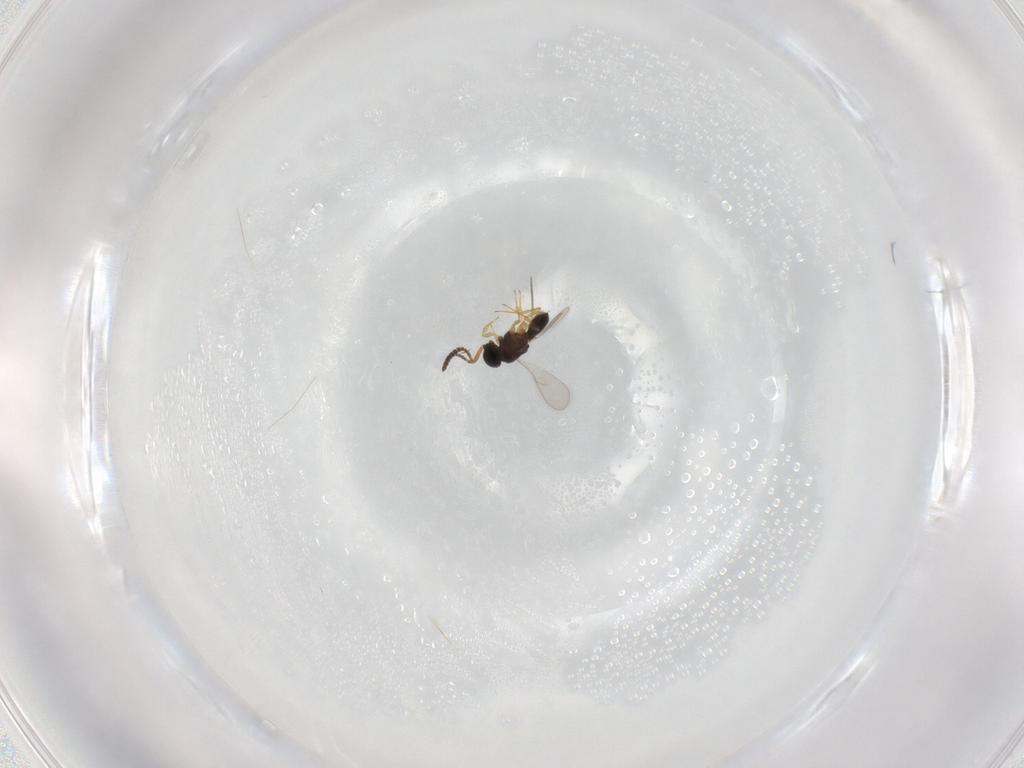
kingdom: Animalia
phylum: Arthropoda
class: Insecta
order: Hymenoptera
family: Scelionidae
